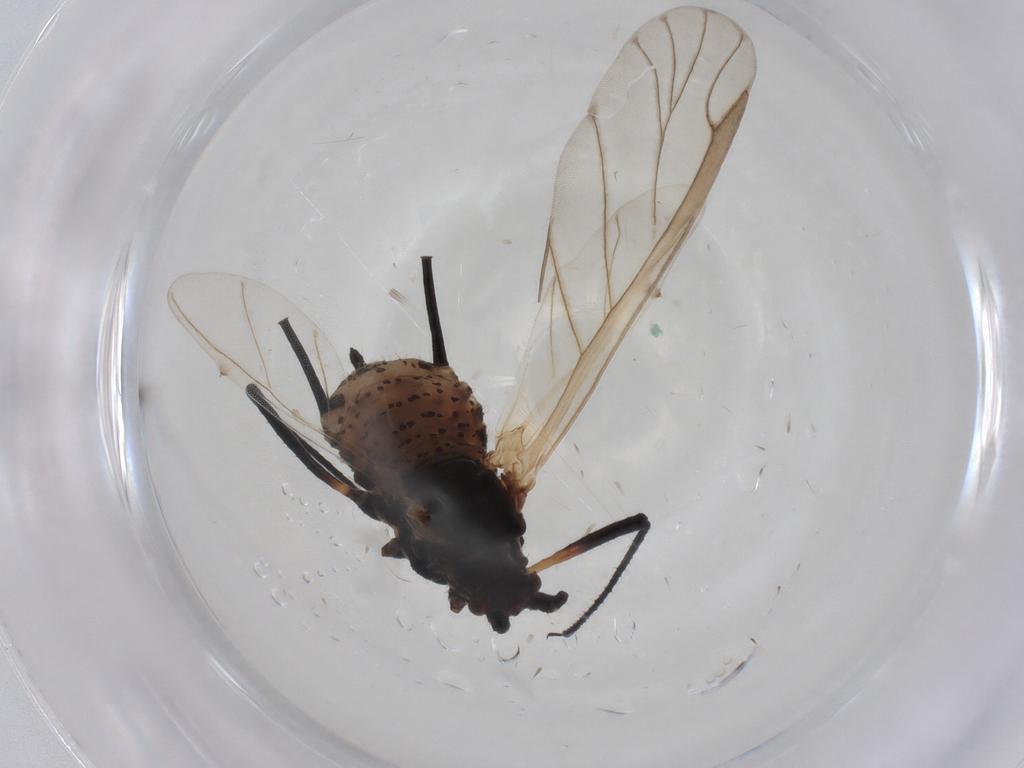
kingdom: Animalia
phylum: Arthropoda
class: Insecta
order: Hemiptera
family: Aphididae
